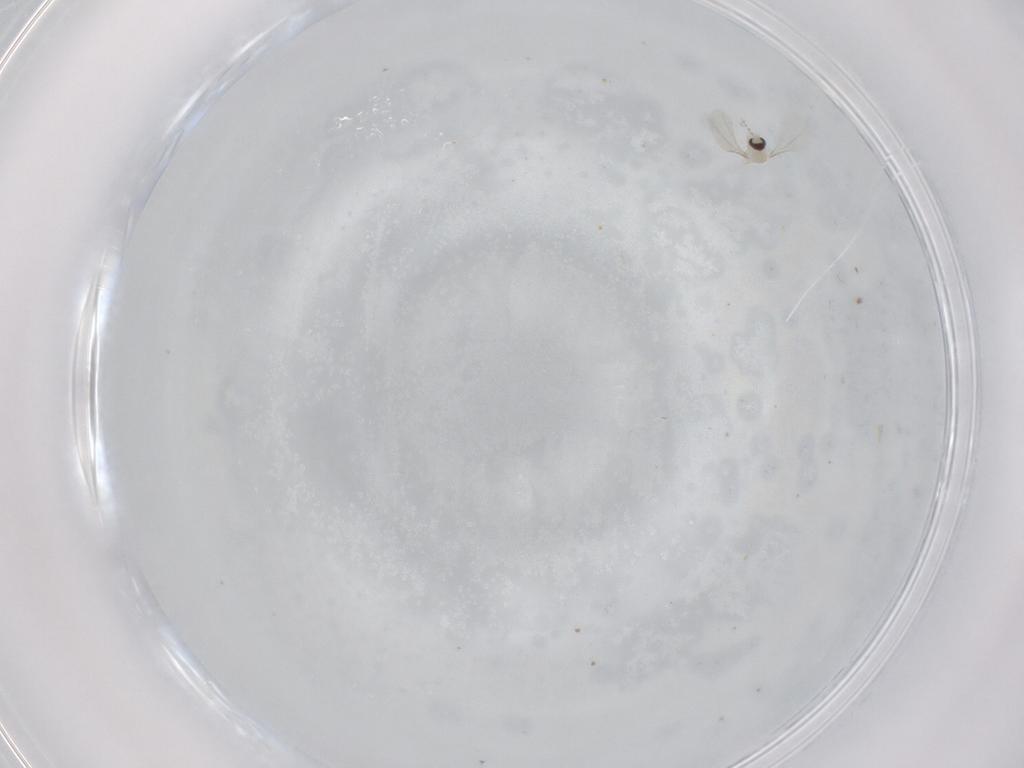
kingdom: Animalia
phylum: Arthropoda
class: Insecta
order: Diptera
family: Cecidomyiidae
